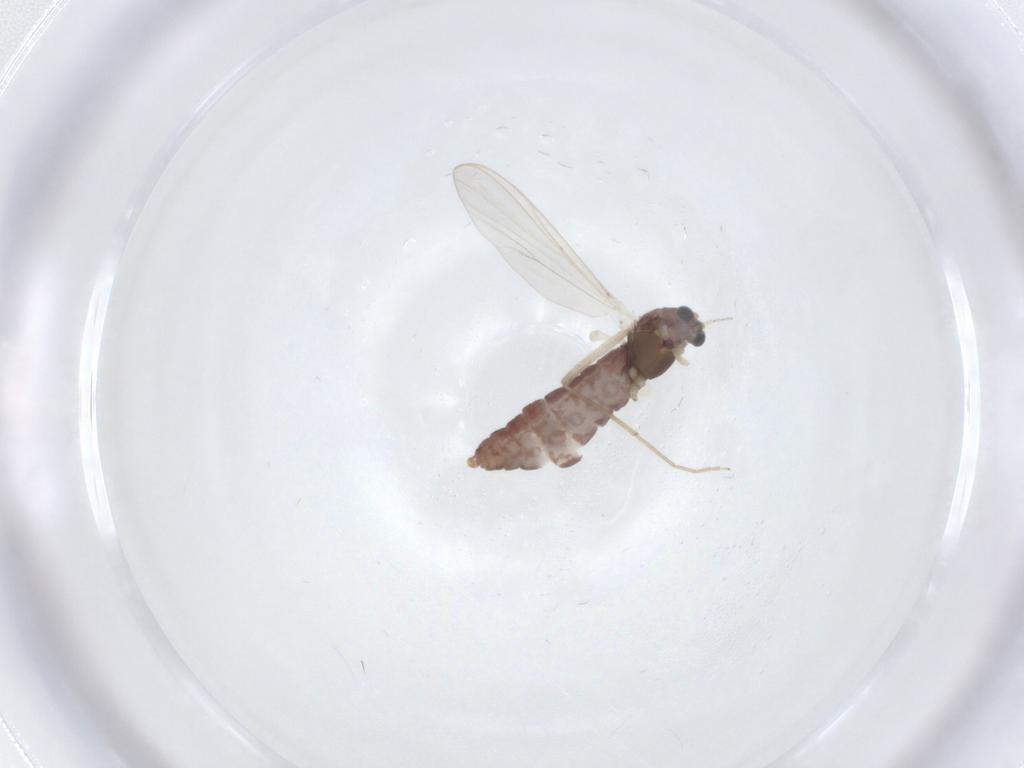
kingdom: Animalia
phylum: Arthropoda
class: Insecta
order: Diptera
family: Chironomidae
